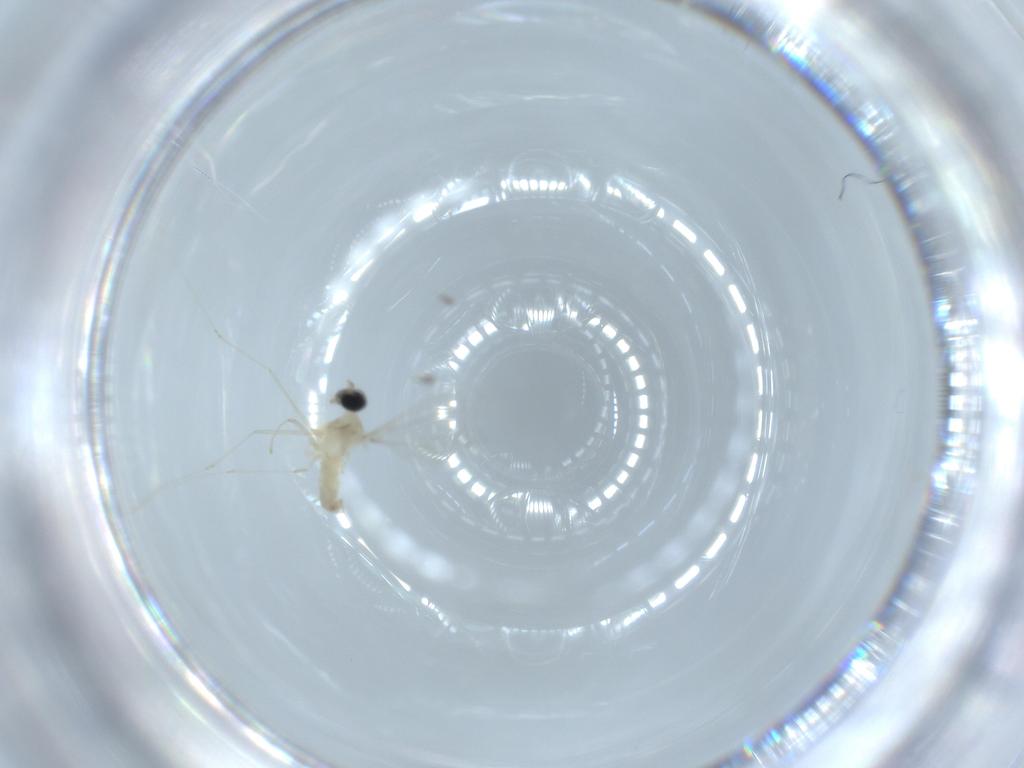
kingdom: Animalia
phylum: Arthropoda
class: Insecta
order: Diptera
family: Cecidomyiidae
